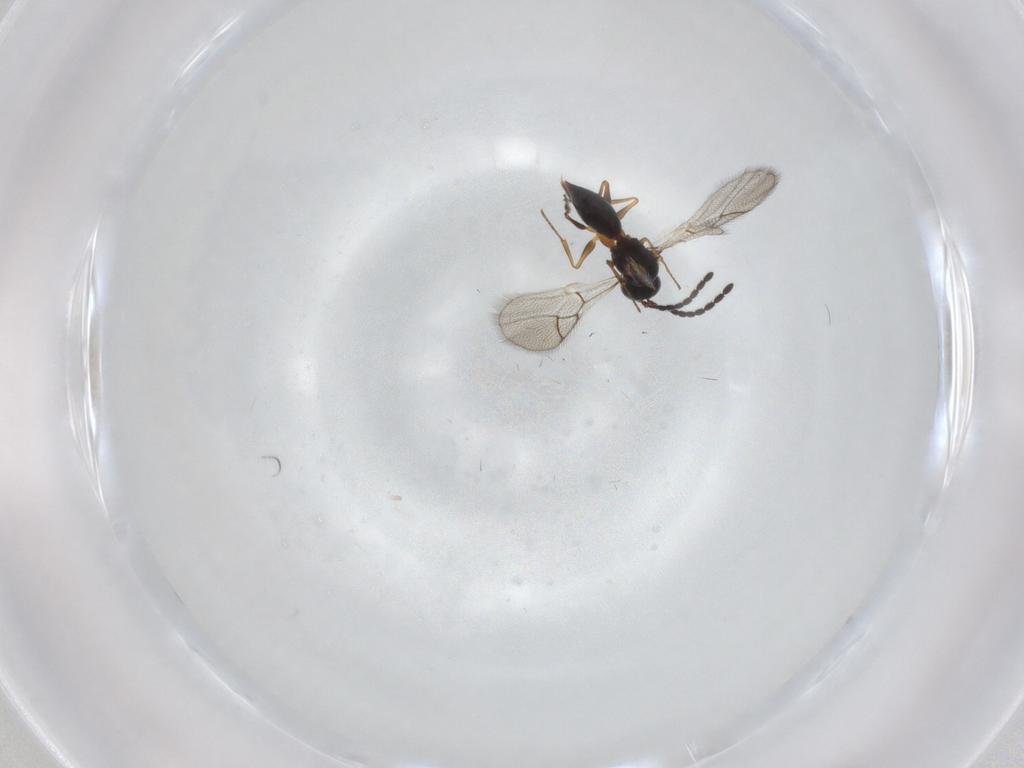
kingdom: Animalia
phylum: Arthropoda
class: Insecta
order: Hymenoptera
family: Figitidae
